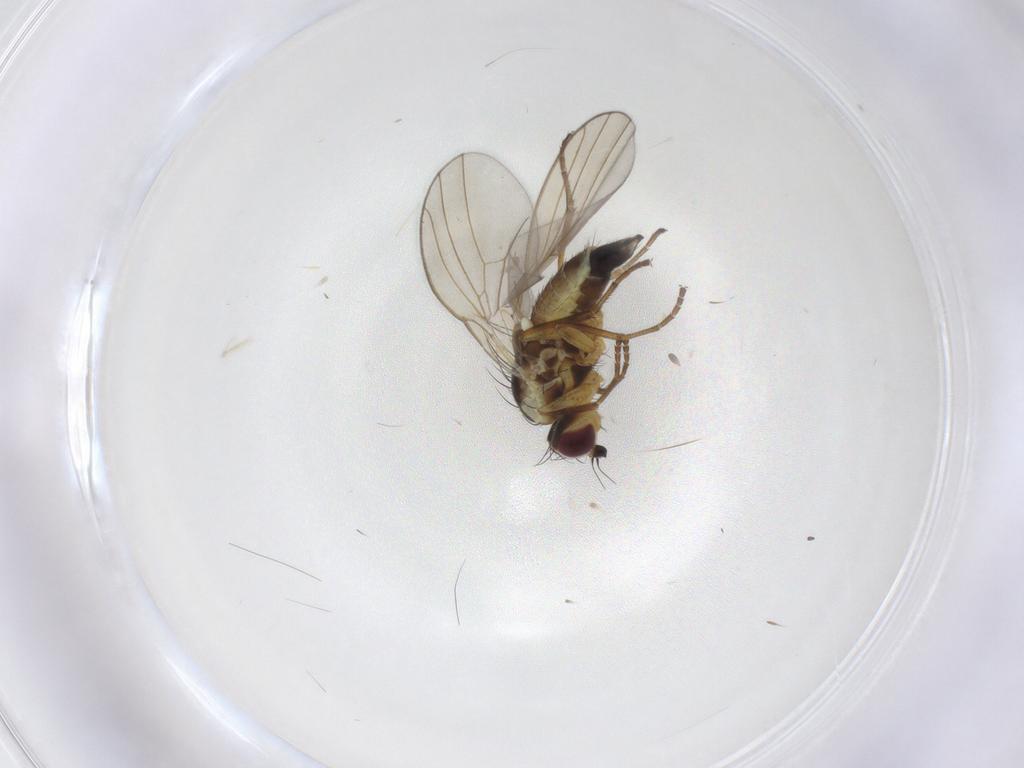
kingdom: Animalia
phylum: Arthropoda
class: Insecta
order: Diptera
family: Agromyzidae
